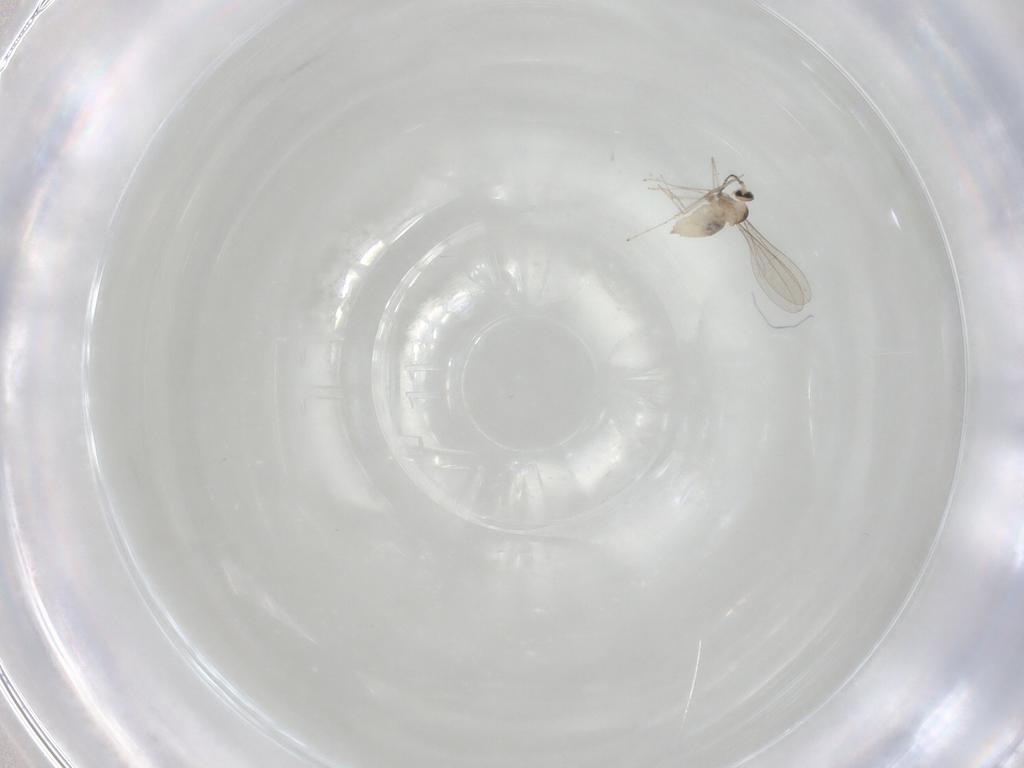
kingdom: Animalia
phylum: Arthropoda
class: Insecta
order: Diptera
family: Cecidomyiidae
